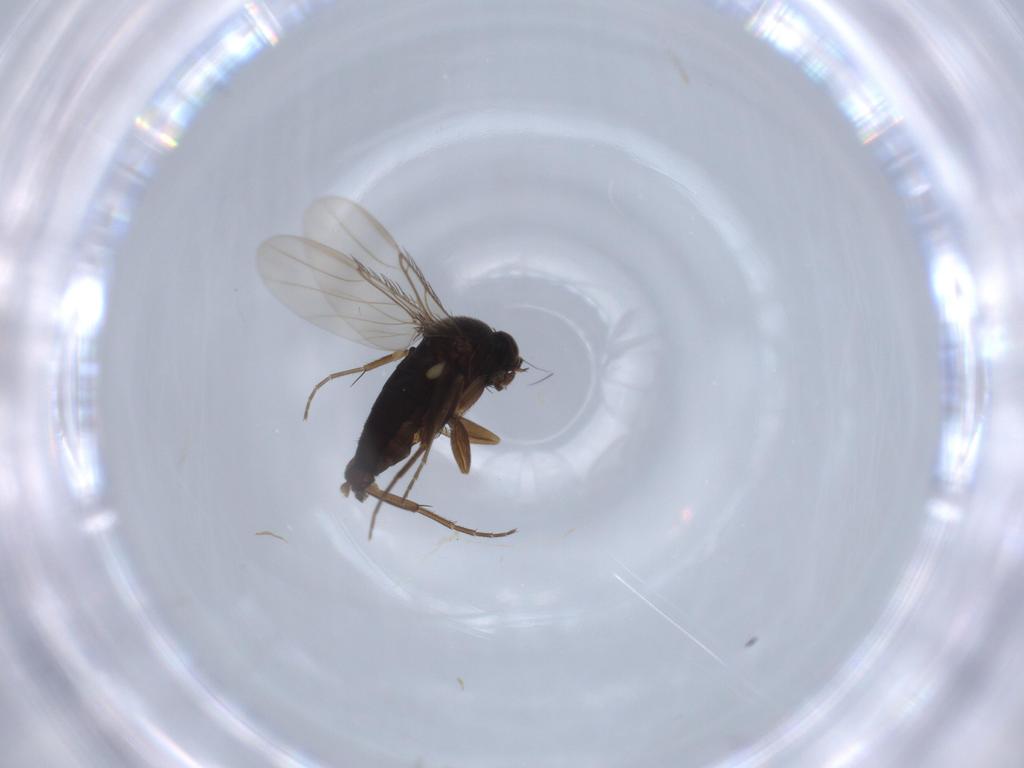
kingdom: Animalia
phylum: Arthropoda
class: Insecta
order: Diptera
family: Phoridae
